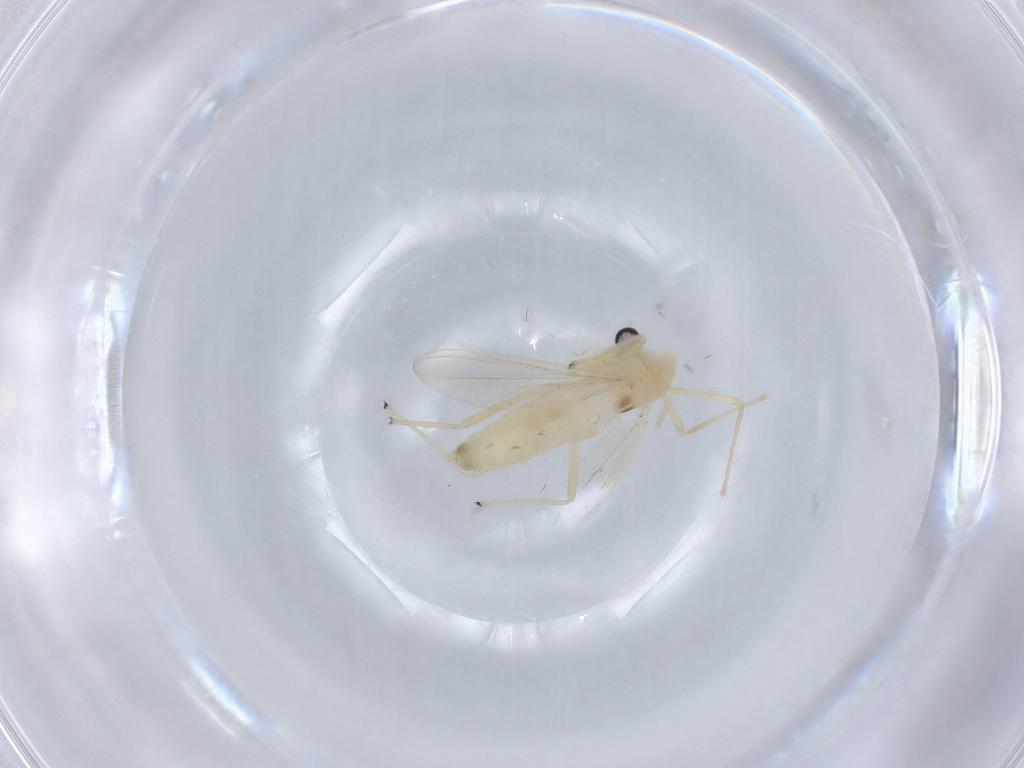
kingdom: Animalia
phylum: Arthropoda
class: Insecta
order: Diptera
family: Chironomidae
